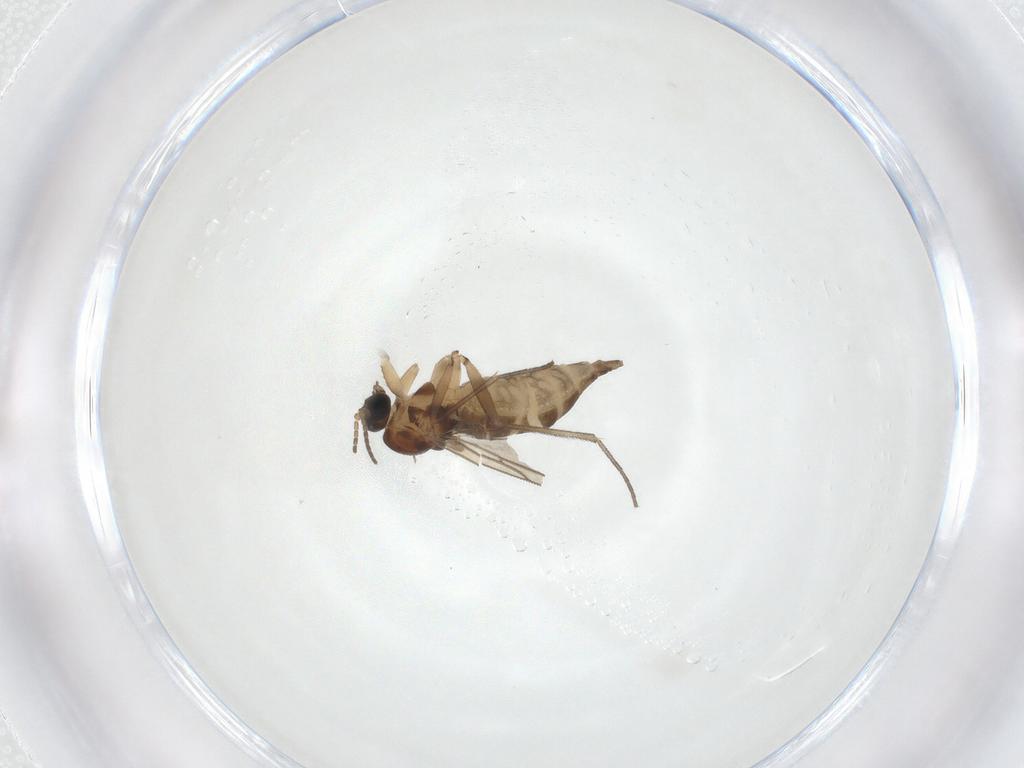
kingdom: Animalia
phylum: Arthropoda
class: Insecta
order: Diptera
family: Sciaridae
